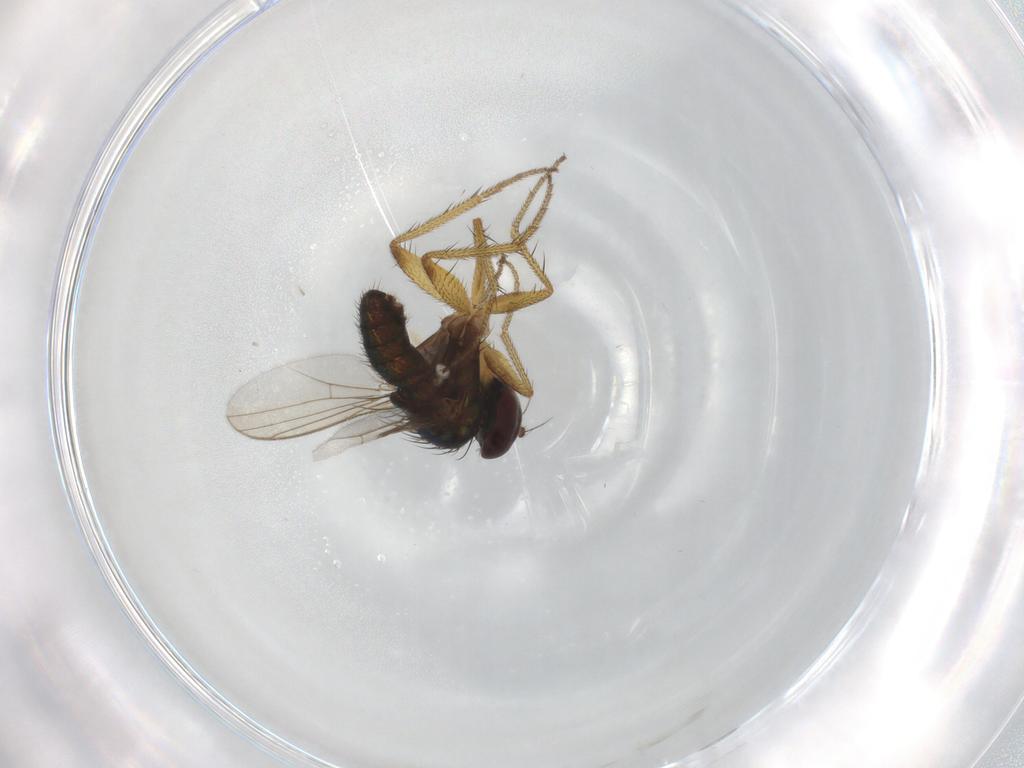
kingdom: Animalia
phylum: Arthropoda
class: Insecta
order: Diptera
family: Dolichopodidae
